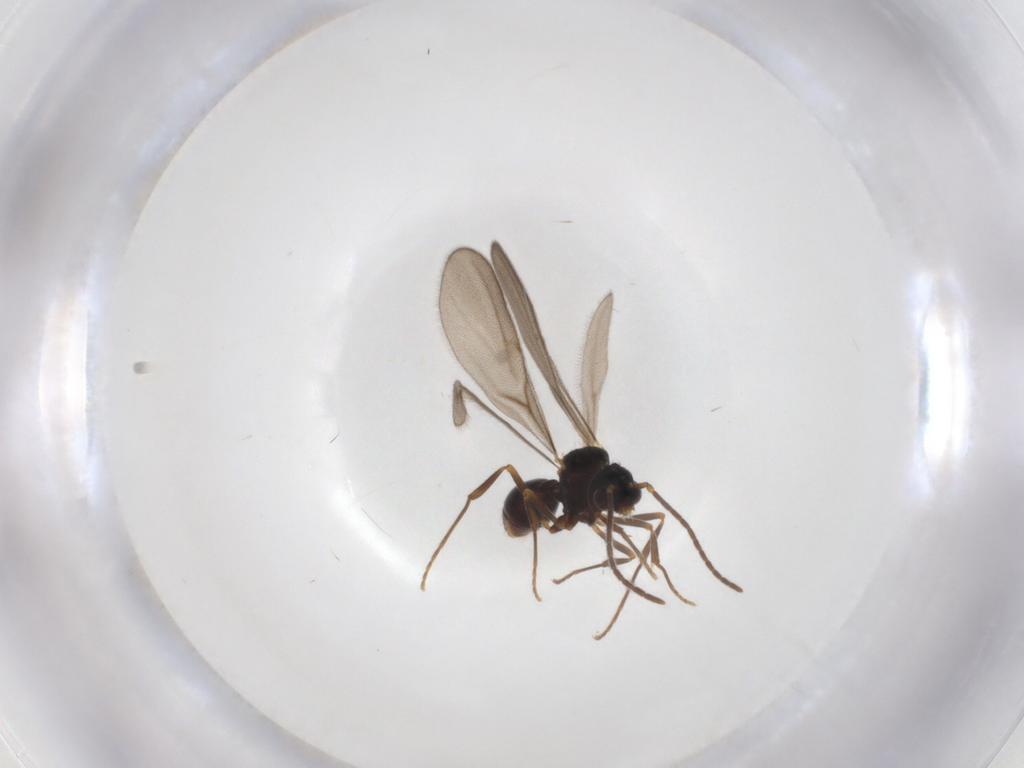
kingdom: Animalia
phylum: Arthropoda
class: Insecta
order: Hymenoptera
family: Formicidae
